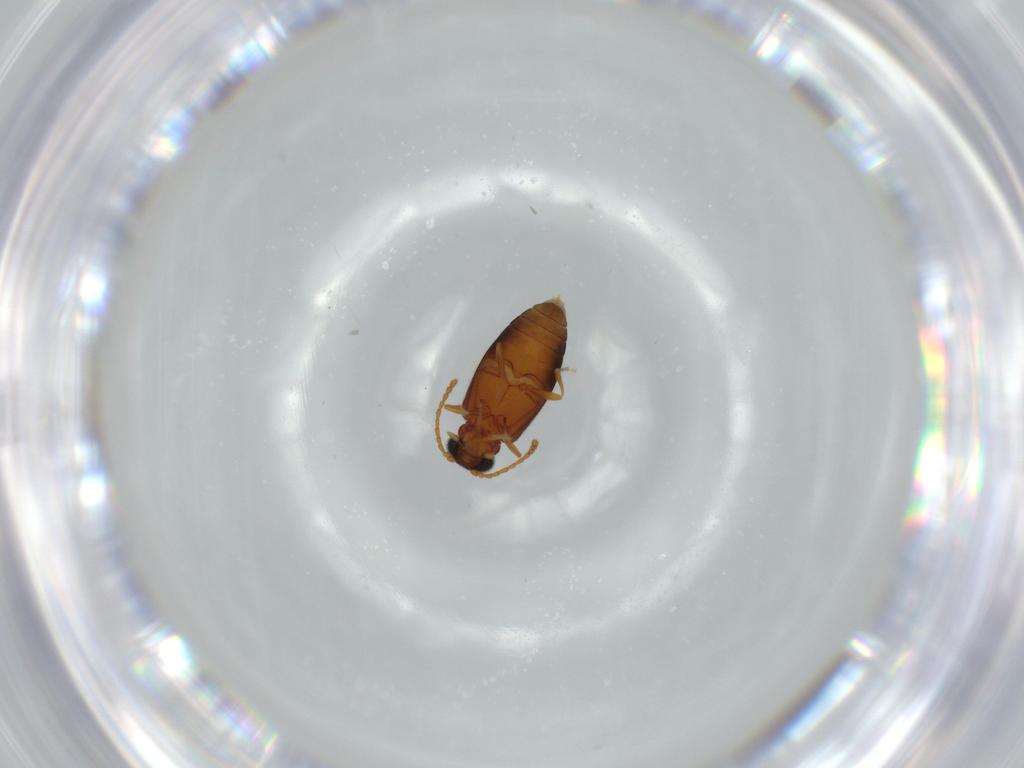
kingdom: Animalia
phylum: Arthropoda
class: Insecta
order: Coleoptera
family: Aderidae
